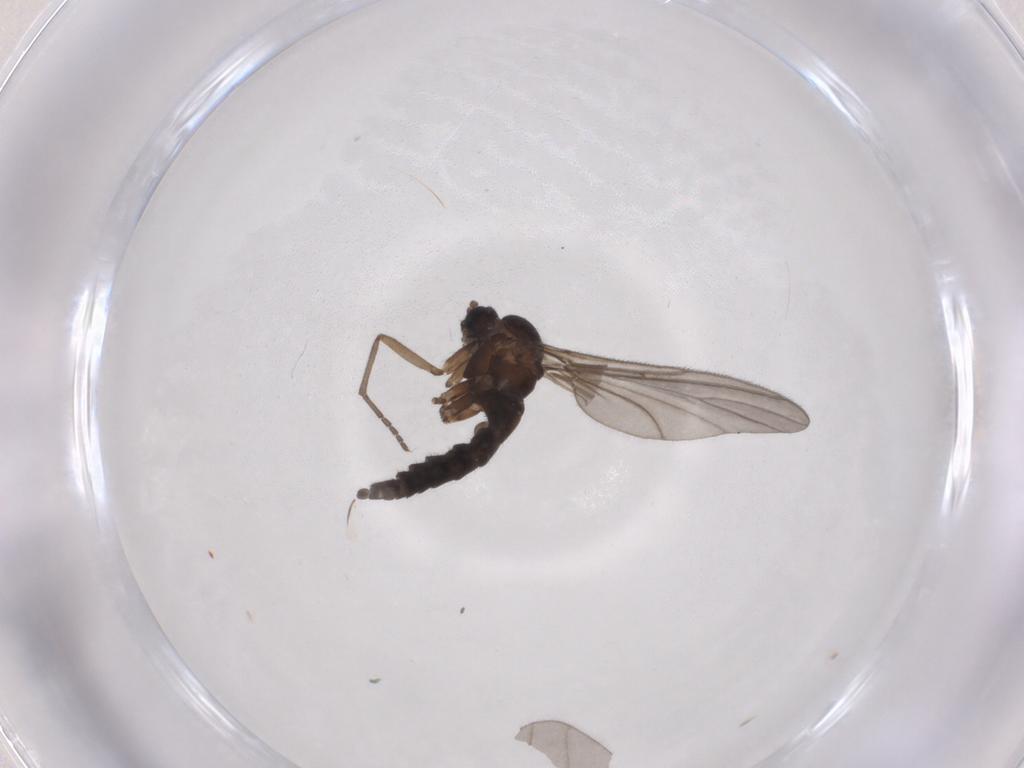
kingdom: Animalia
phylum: Arthropoda
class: Insecta
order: Diptera
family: Sciaridae
